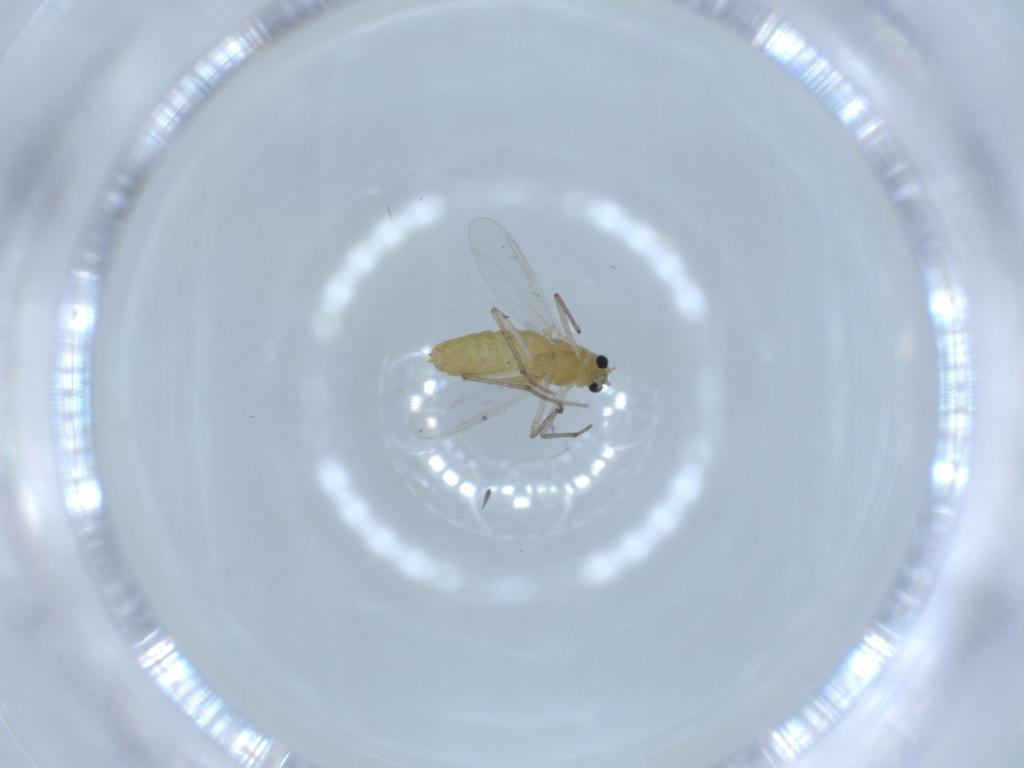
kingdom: Animalia
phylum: Arthropoda
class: Insecta
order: Diptera
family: Chironomidae
